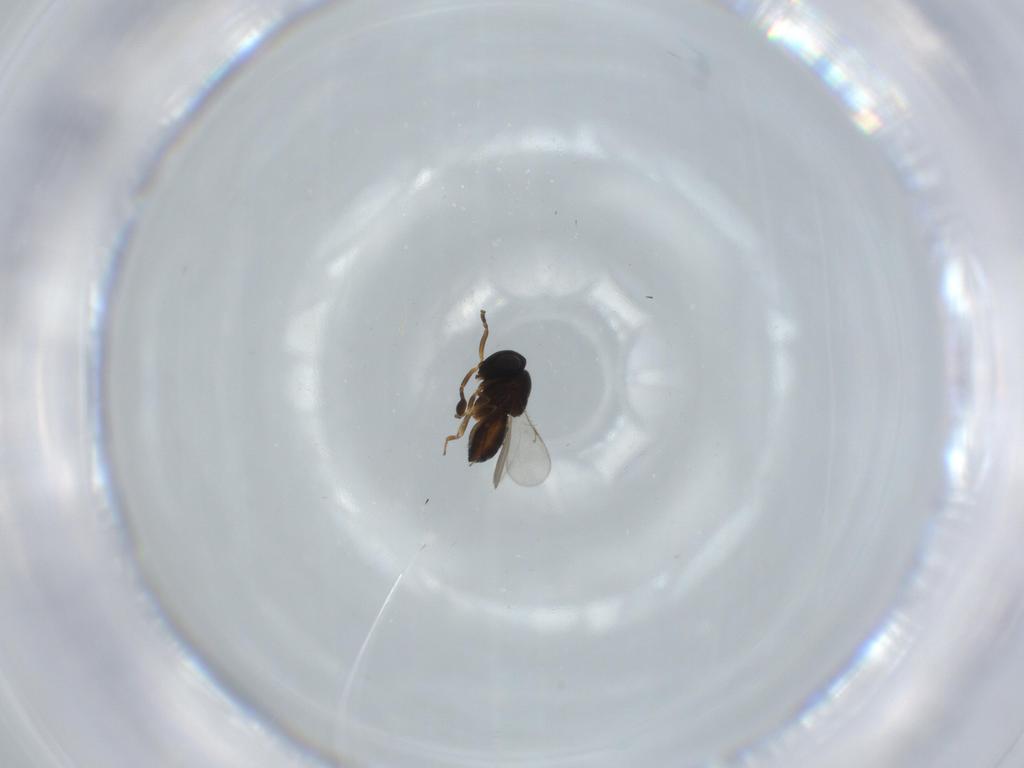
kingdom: Animalia
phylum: Arthropoda
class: Insecta
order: Coleoptera
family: Curculionidae
